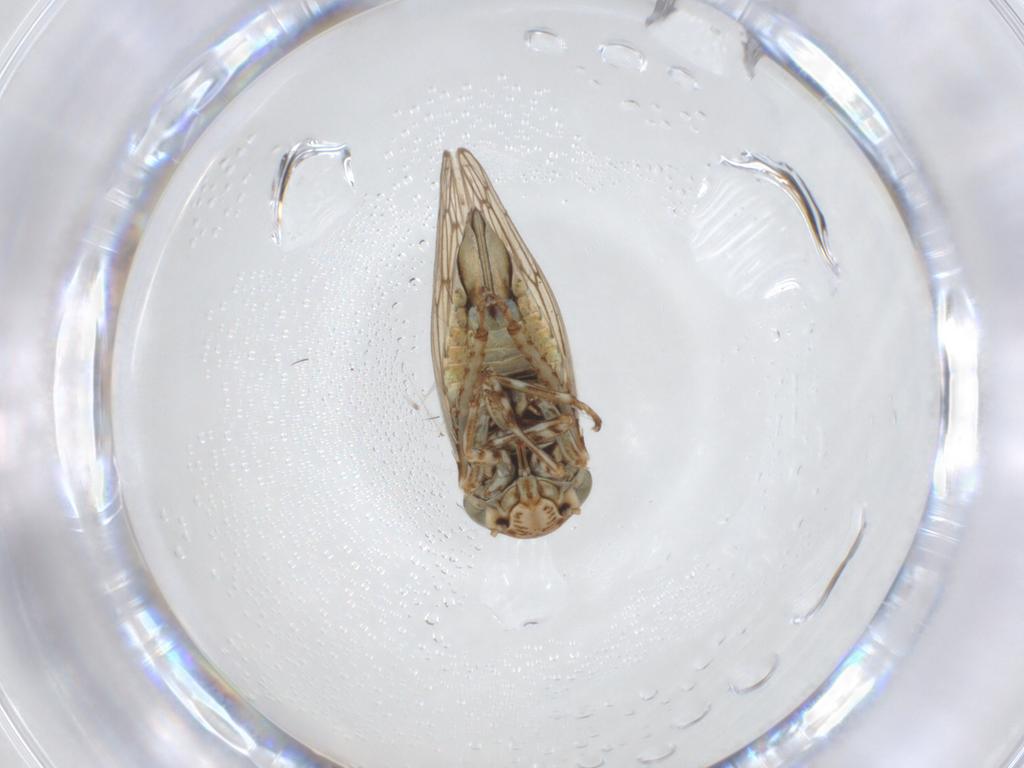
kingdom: Animalia
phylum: Arthropoda
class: Insecta
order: Hemiptera
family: Cicadellidae
